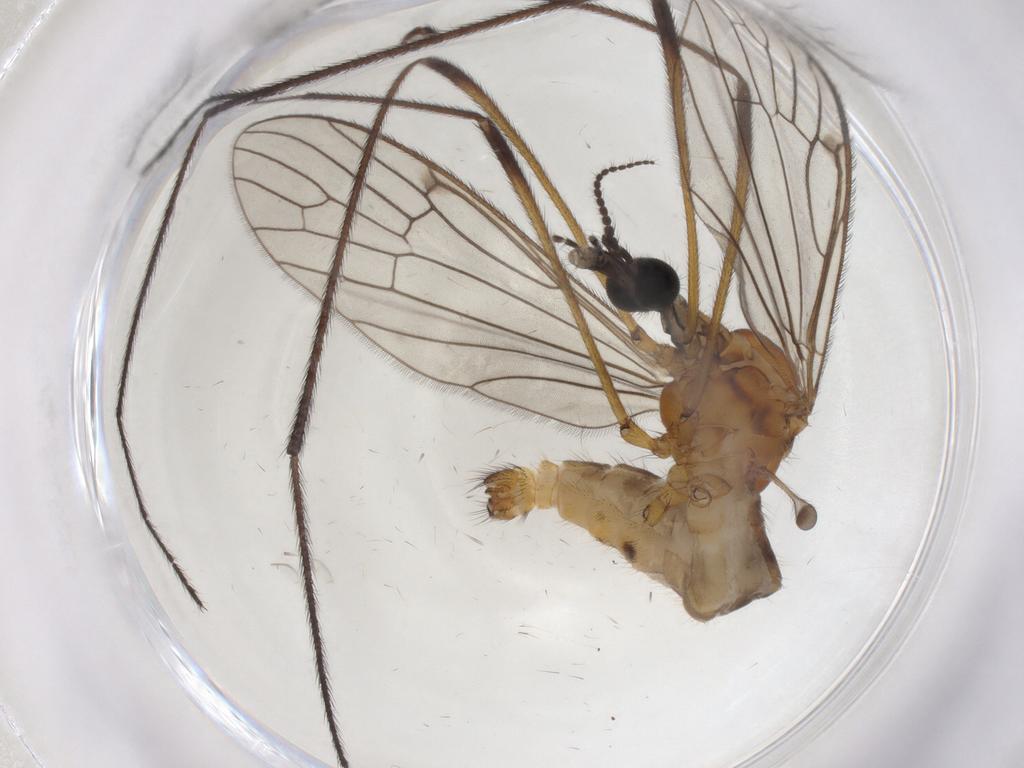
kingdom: Animalia
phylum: Arthropoda
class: Insecta
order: Diptera
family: Limoniidae
